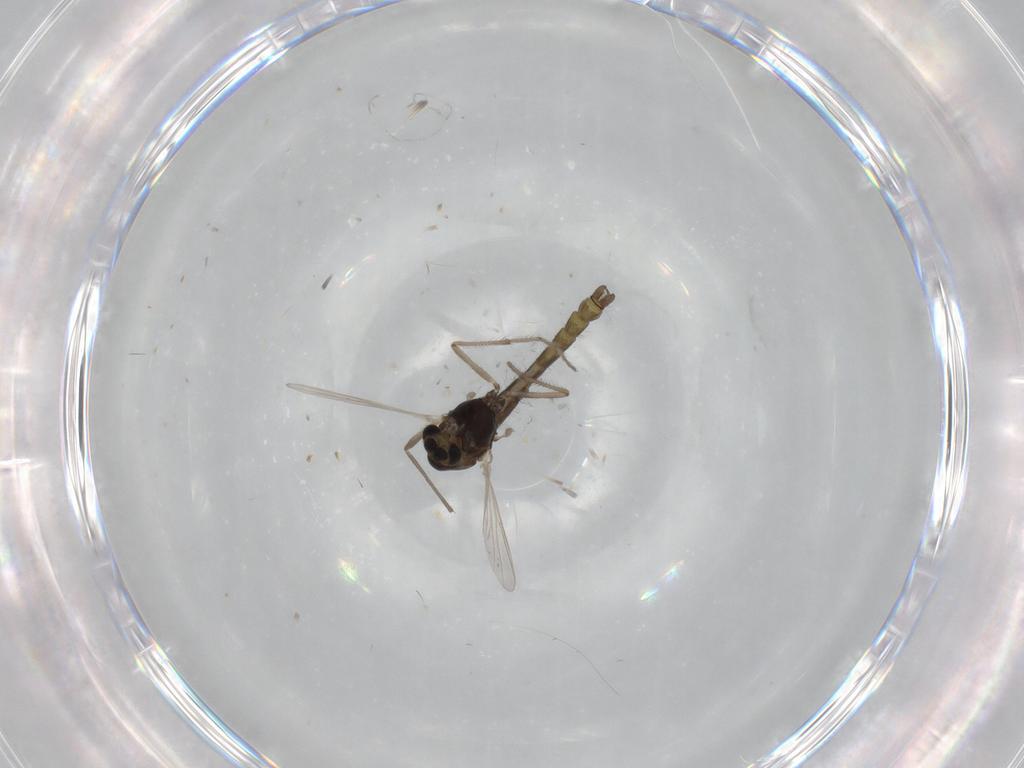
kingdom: Animalia
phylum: Arthropoda
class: Insecta
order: Diptera
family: Chironomidae
